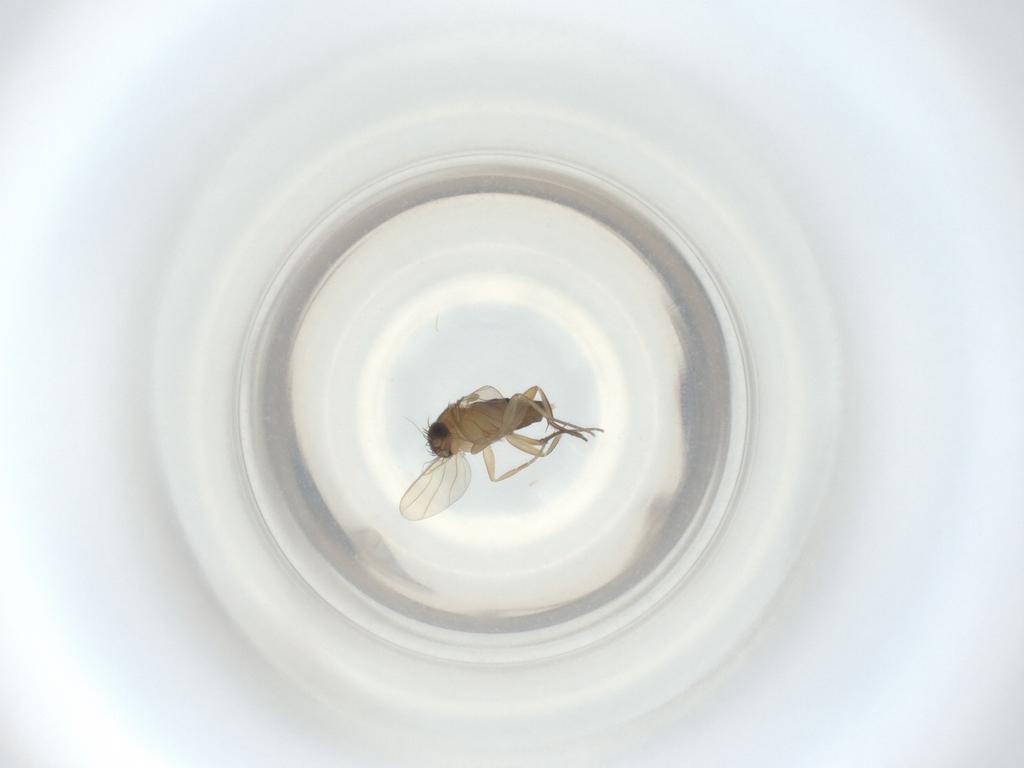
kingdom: Animalia
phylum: Arthropoda
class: Insecta
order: Diptera
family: Phoridae
